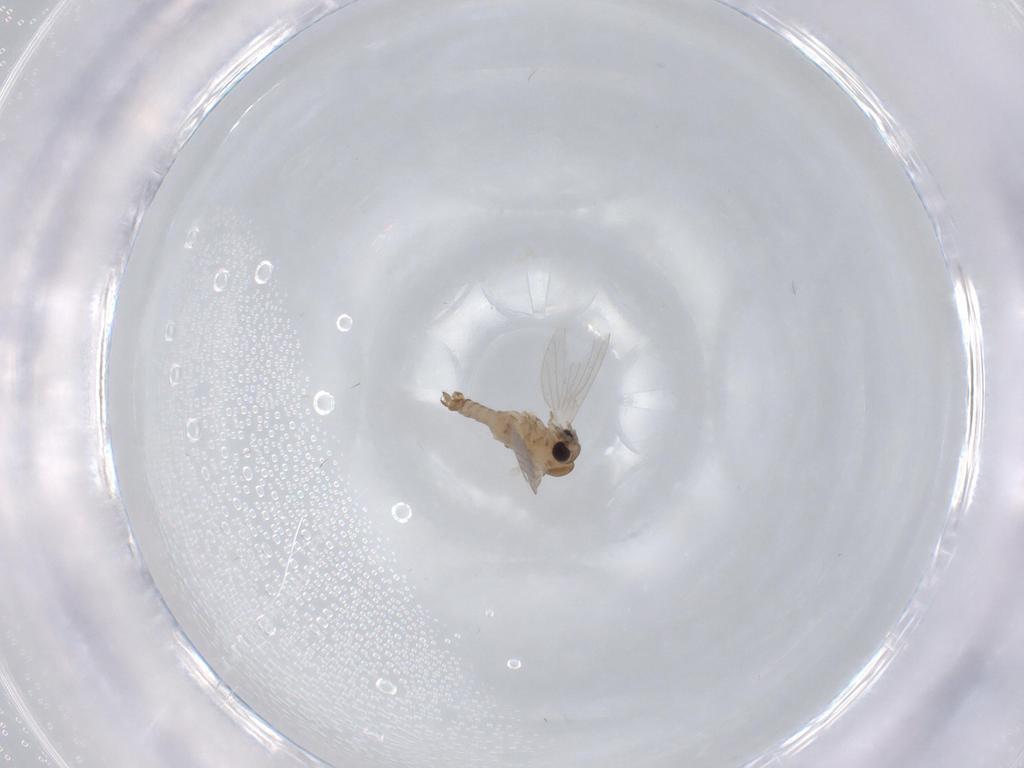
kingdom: Animalia
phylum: Arthropoda
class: Insecta
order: Diptera
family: Psychodidae
